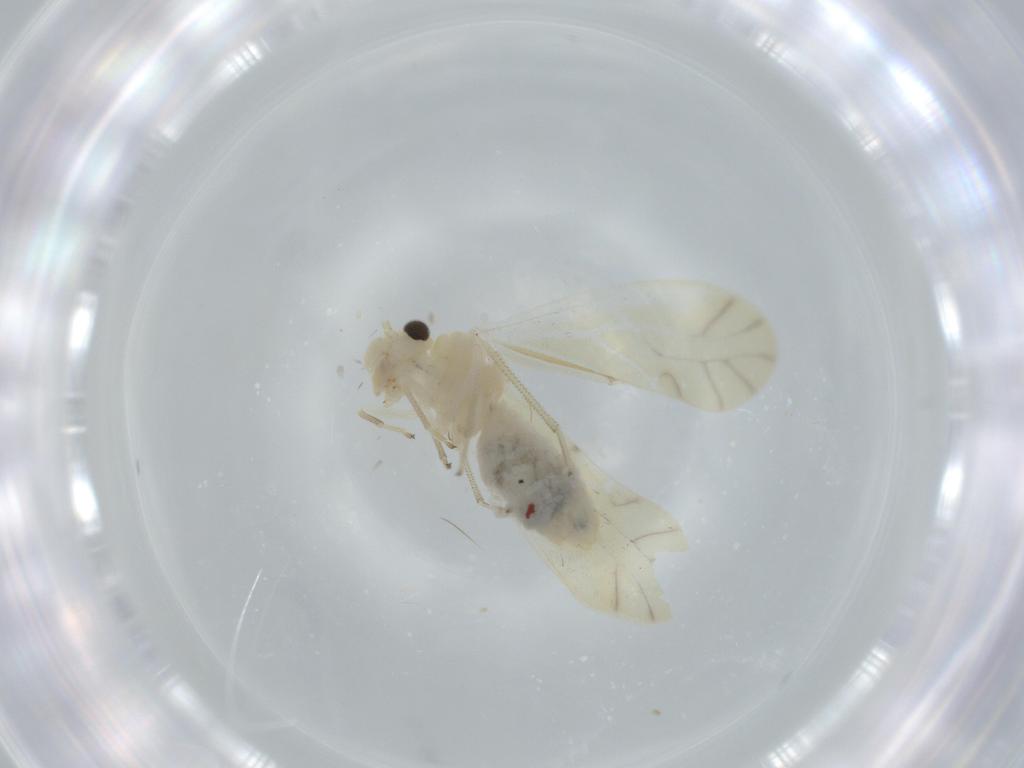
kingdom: Animalia
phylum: Arthropoda
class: Insecta
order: Psocodea
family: Caeciliusidae
